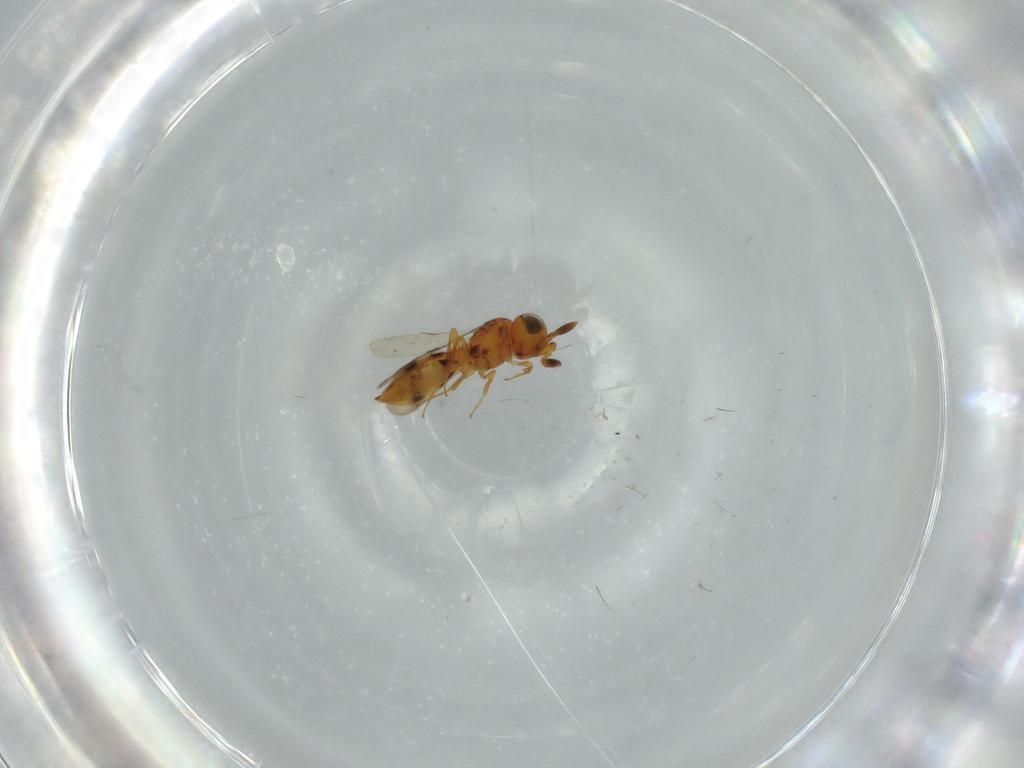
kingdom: Animalia
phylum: Arthropoda
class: Insecta
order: Hymenoptera
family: Scelionidae
